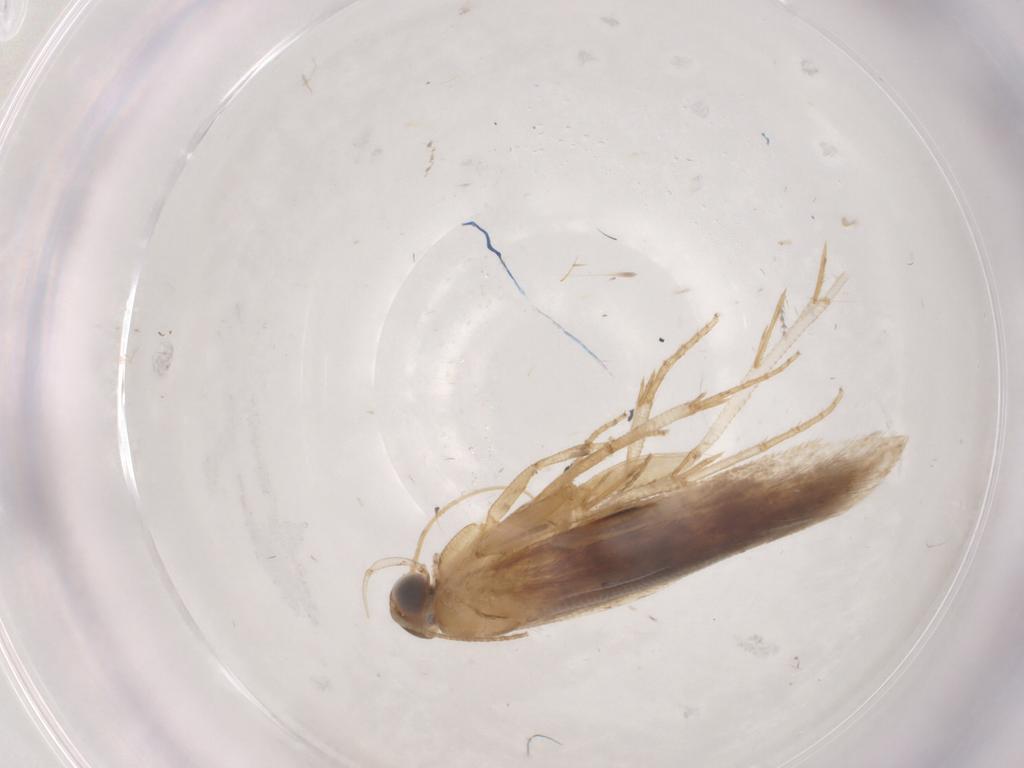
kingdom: Animalia
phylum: Arthropoda
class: Insecta
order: Lepidoptera
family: Gelechiidae
